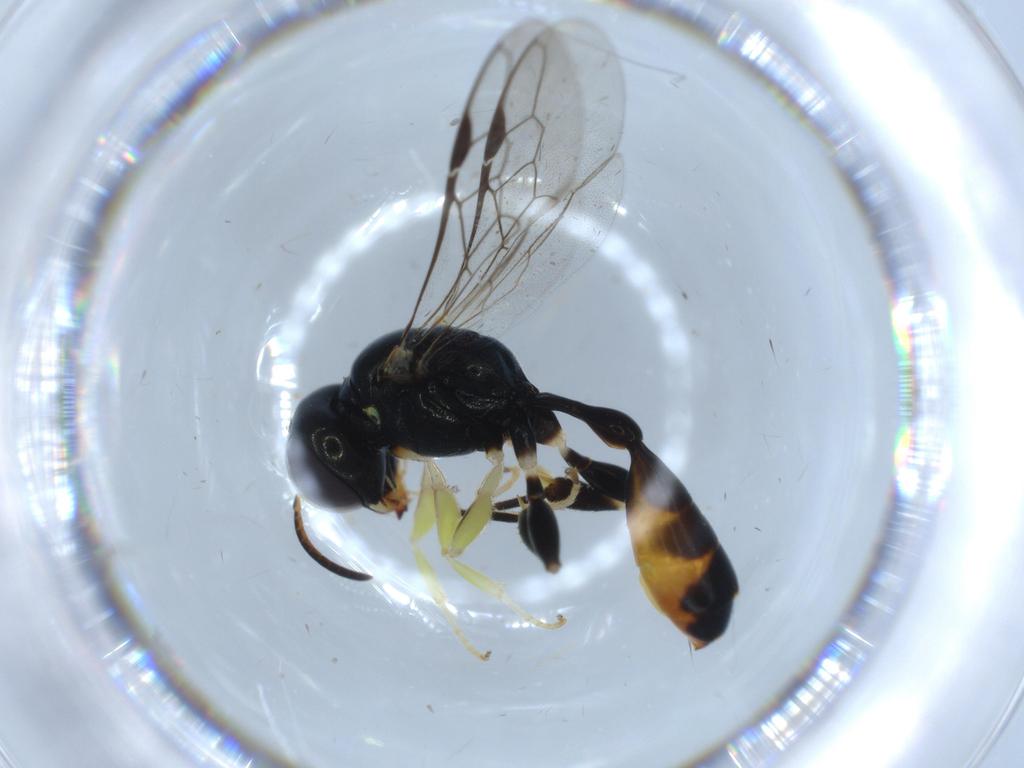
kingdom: Animalia
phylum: Arthropoda
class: Insecta
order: Hymenoptera
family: Crabronidae
